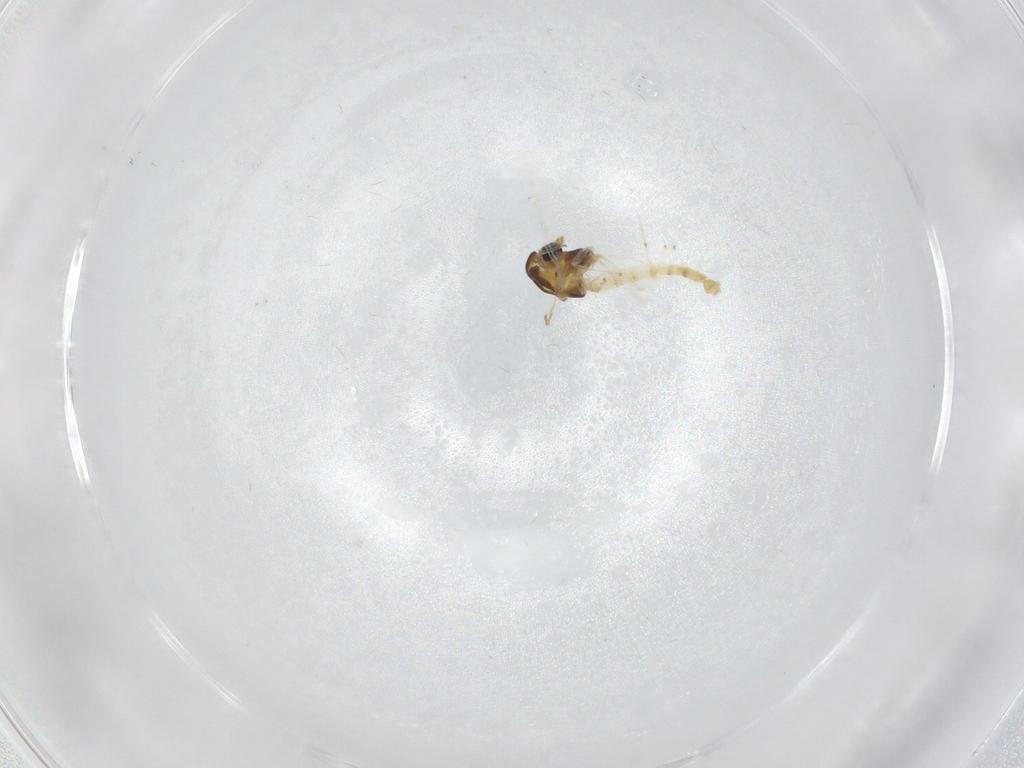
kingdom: Animalia
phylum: Arthropoda
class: Insecta
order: Diptera
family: Chironomidae
